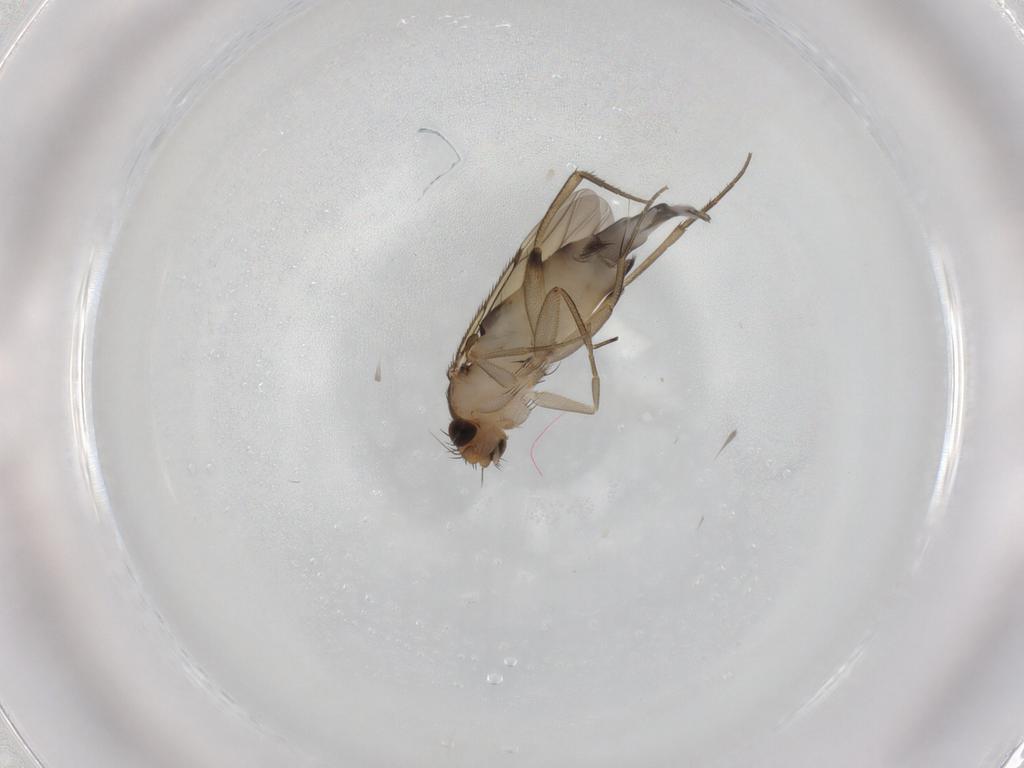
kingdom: Animalia
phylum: Arthropoda
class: Insecta
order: Diptera
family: Phoridae
